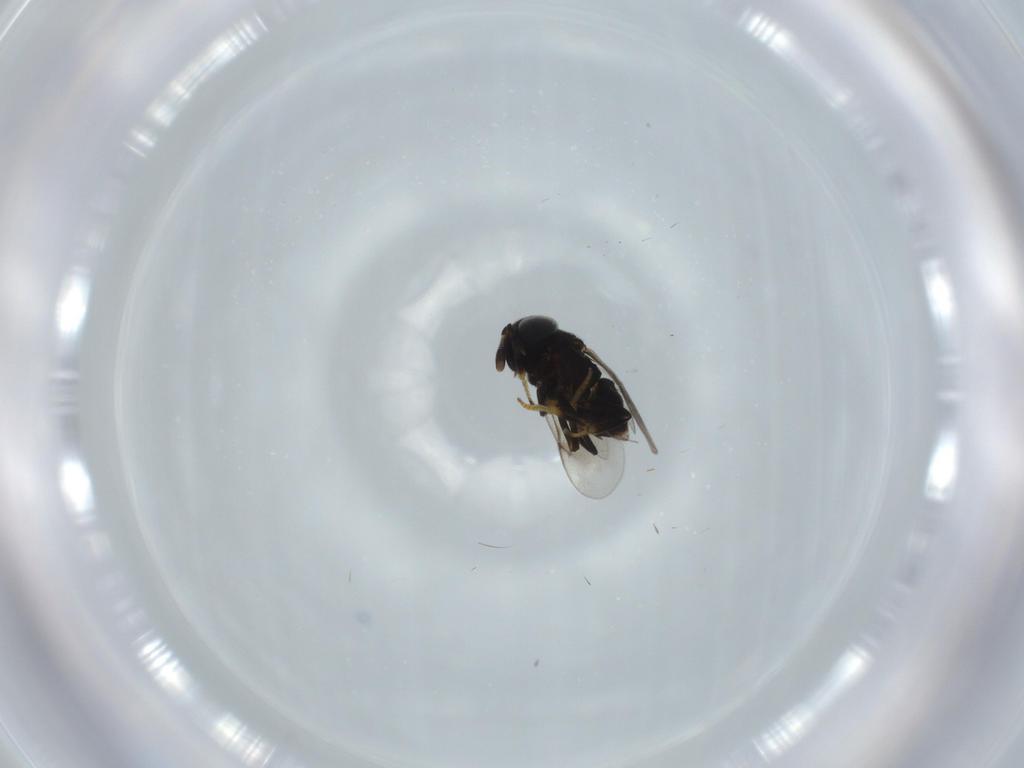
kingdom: Animalia
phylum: Arthropoda
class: Insecta
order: Hymenoptera
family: Encyrtidae
